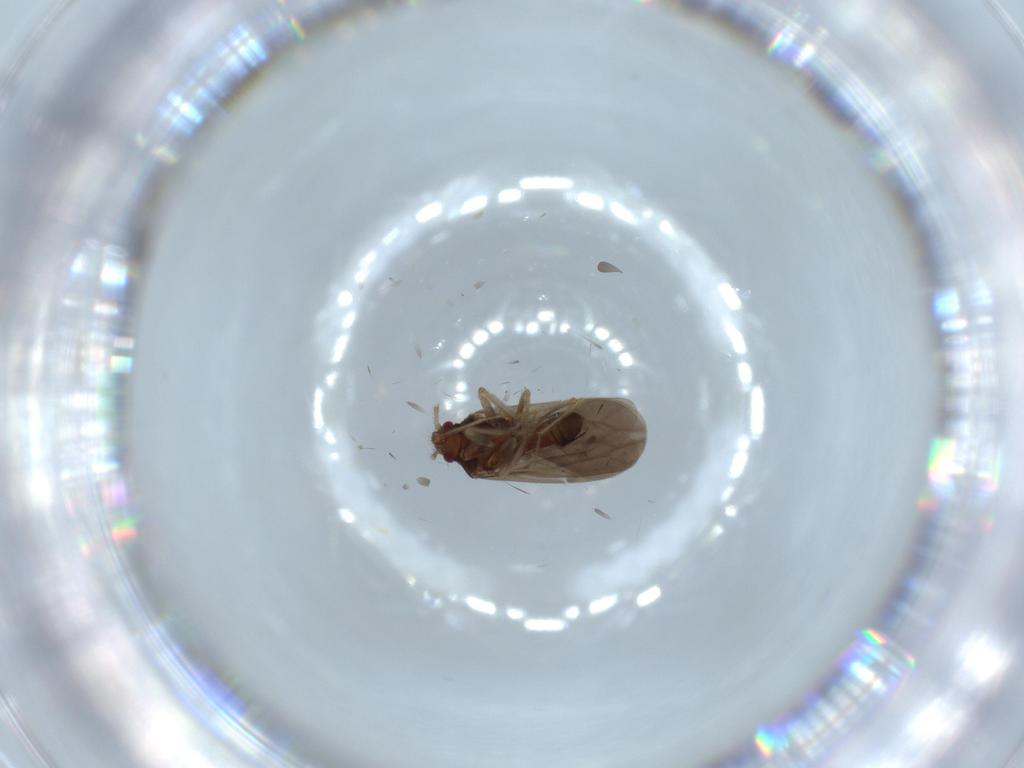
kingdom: Animalia
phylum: Arthropoda
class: Insecta
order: Hemiptera
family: Ceratocombidae
